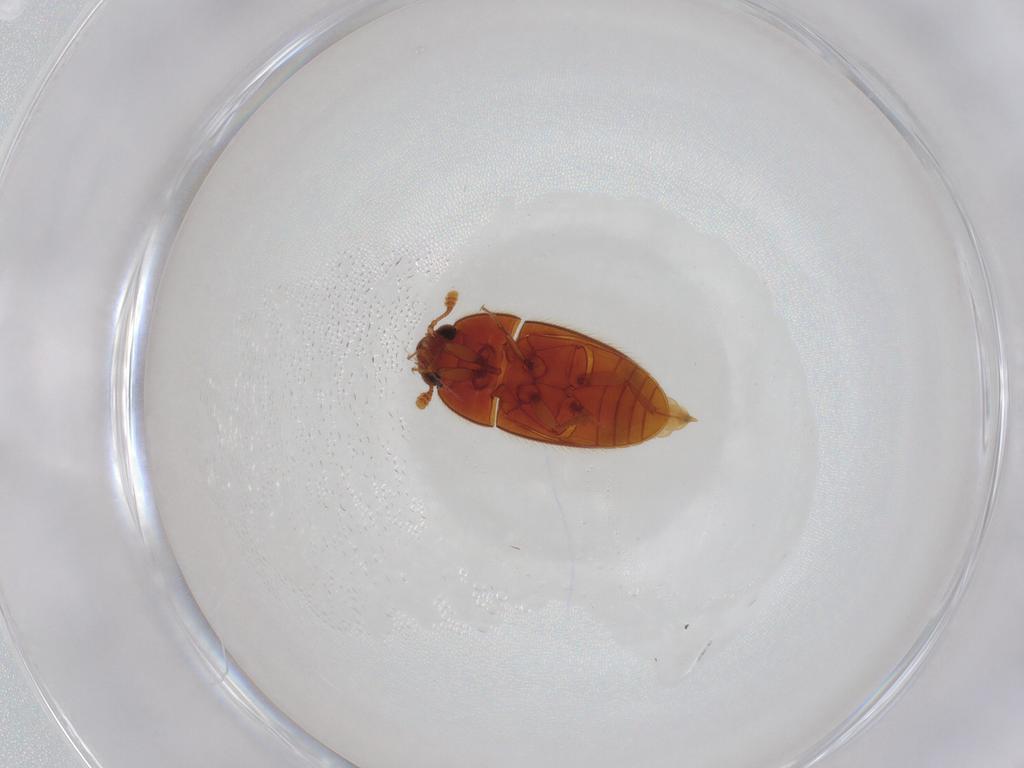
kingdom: Animalia
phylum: Arthropoda
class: Insecta
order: Coleoptera
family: Biphyllidae
